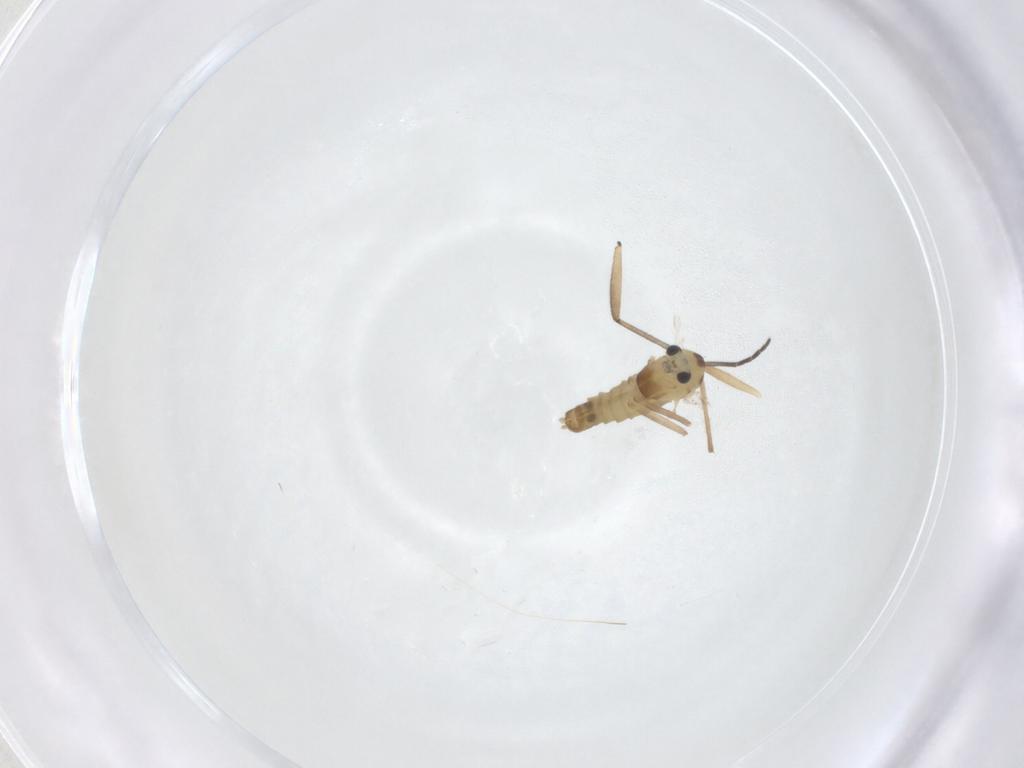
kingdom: Animalia
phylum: Arthropoda
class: Insecta
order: Diptera
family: Chironomidae
